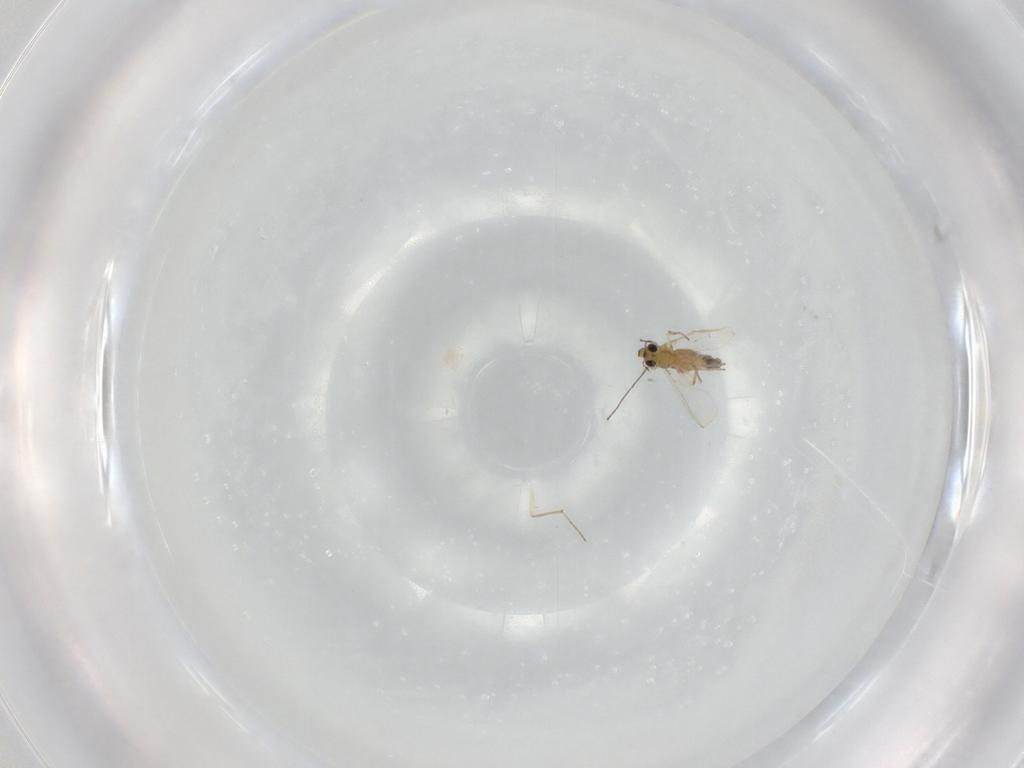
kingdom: Animalia
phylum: Arthropoda
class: Insecta
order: Diptera
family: Chironomidae
